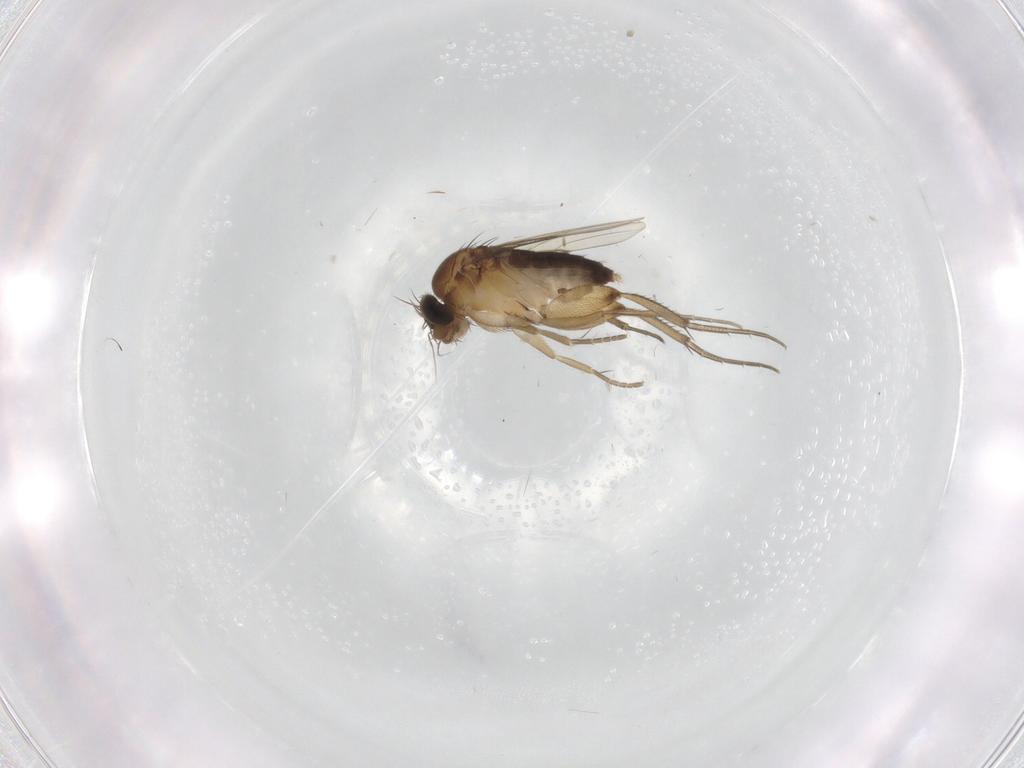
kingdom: Animalia
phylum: Arthropoda
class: Insecta
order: Diptera
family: Phoridae
